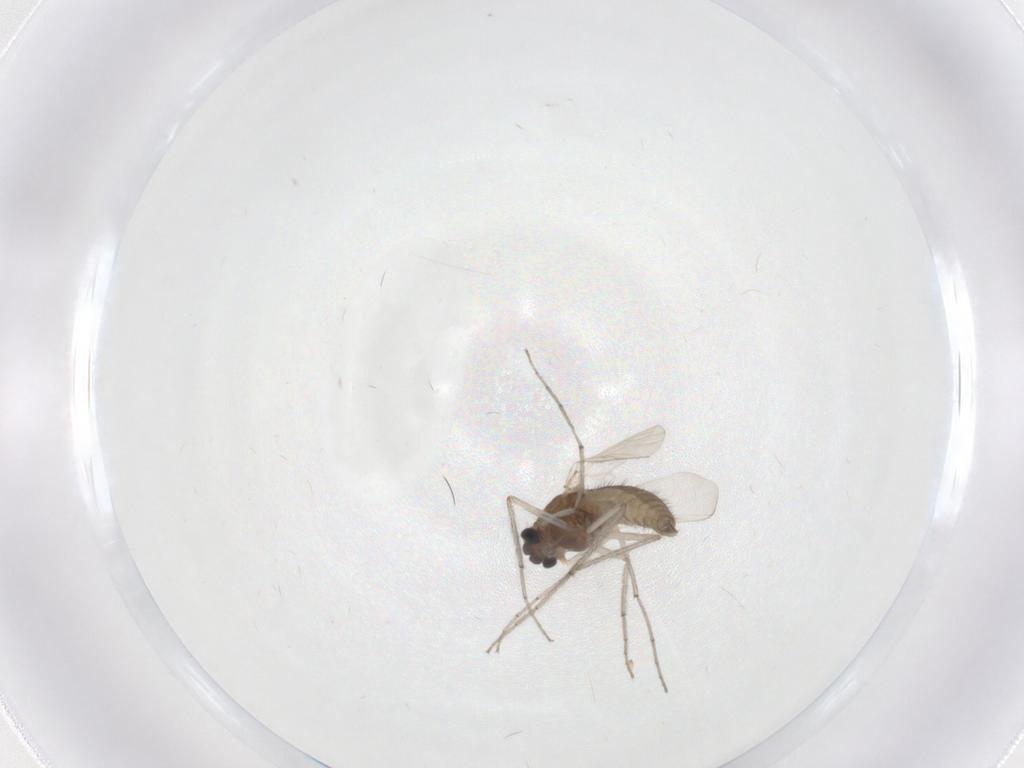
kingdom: Animalia
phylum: Arthropoda
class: Insecta
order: Diptera
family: Chironomidae
